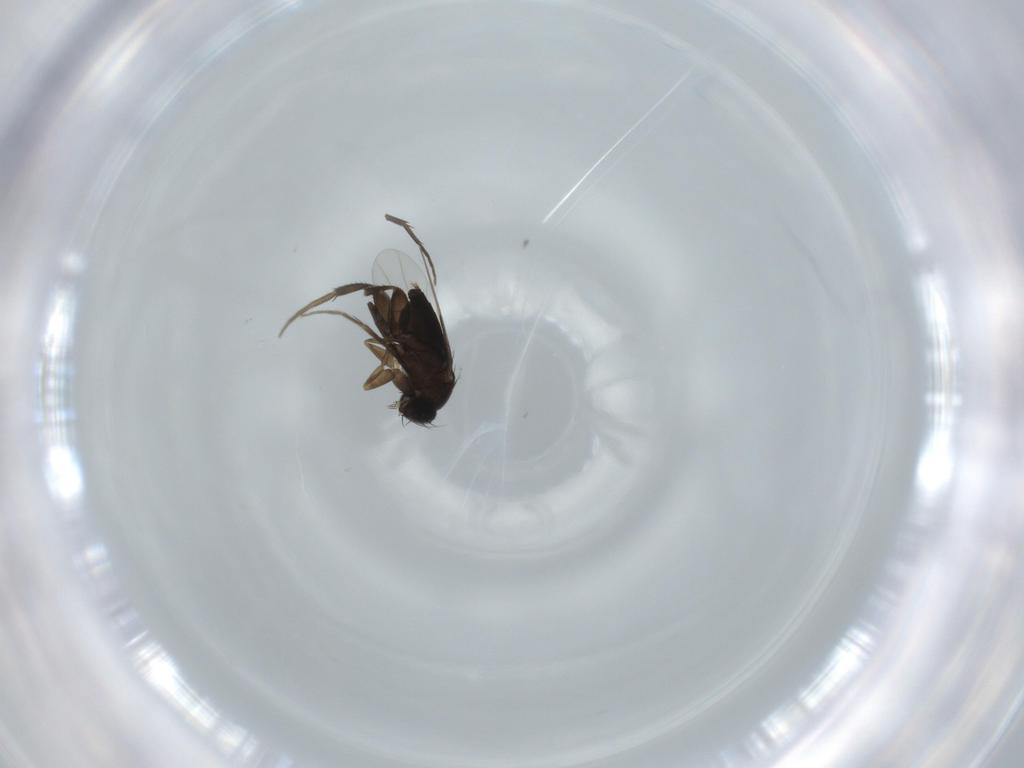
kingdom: Animalia
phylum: Arthropoda
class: Insecta
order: Diptera
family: Phoridae
